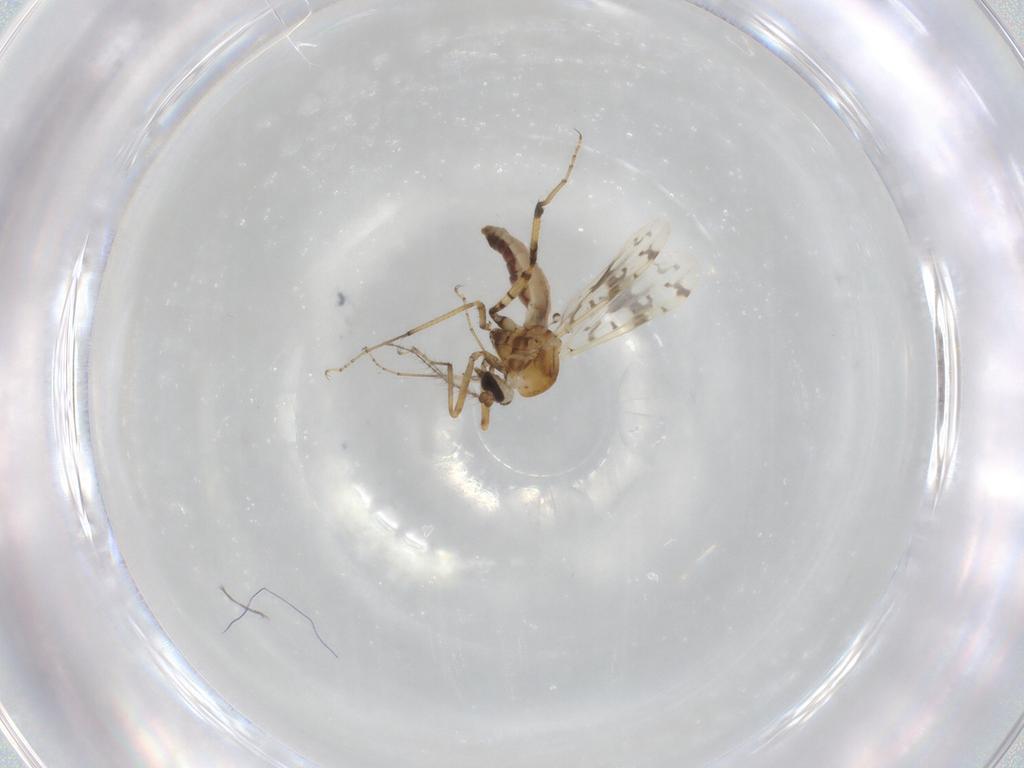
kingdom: Animalia
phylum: Arthropoda
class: Insecta
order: Diptera
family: Ceratopogonidae
